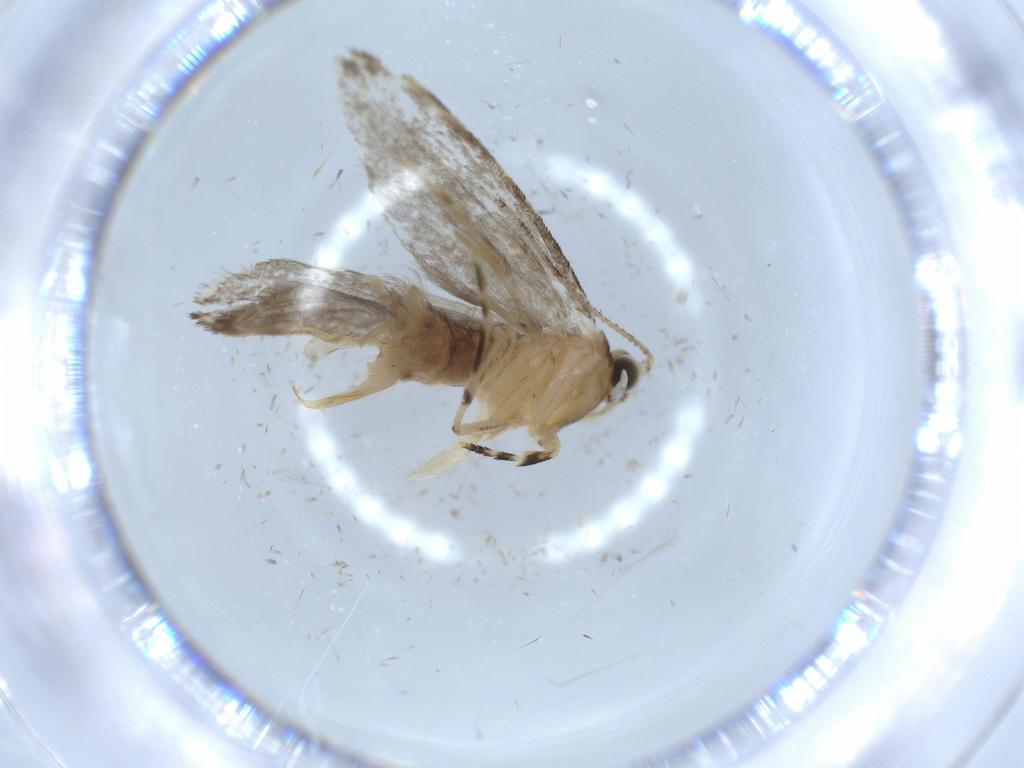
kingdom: Animalia
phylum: Arthropoda
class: Insecta
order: Lepidoptera
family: Tineidae
